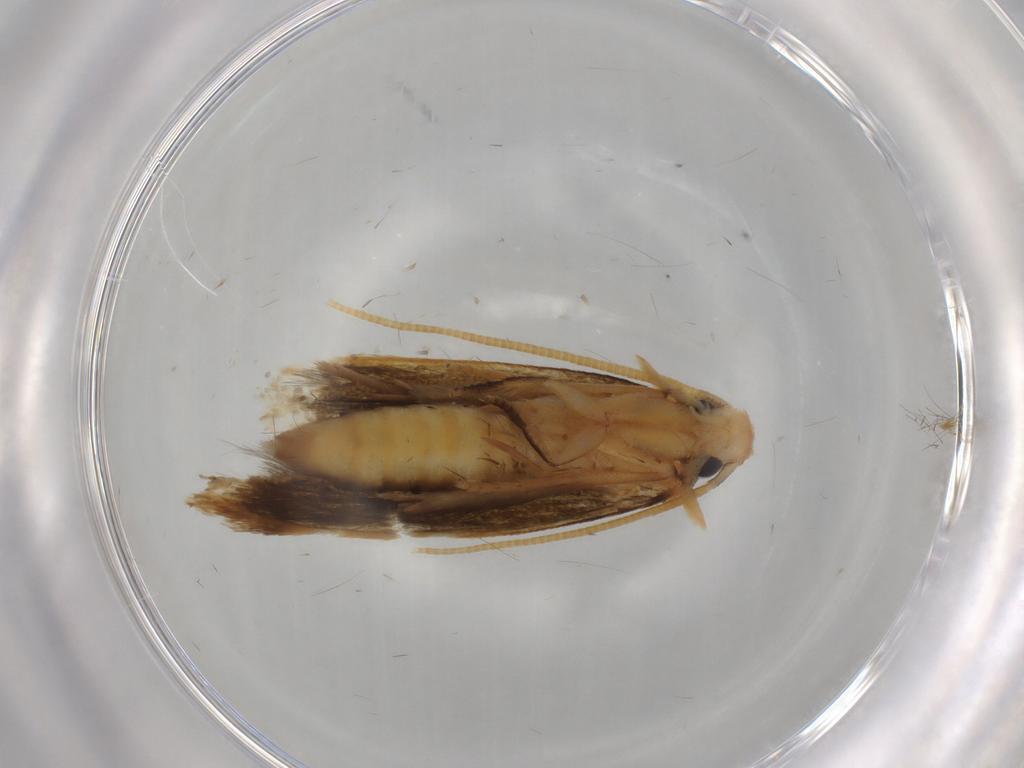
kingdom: Animalia
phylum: Arthropoda
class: Insecta
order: Lepidoptera
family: Tineidae
